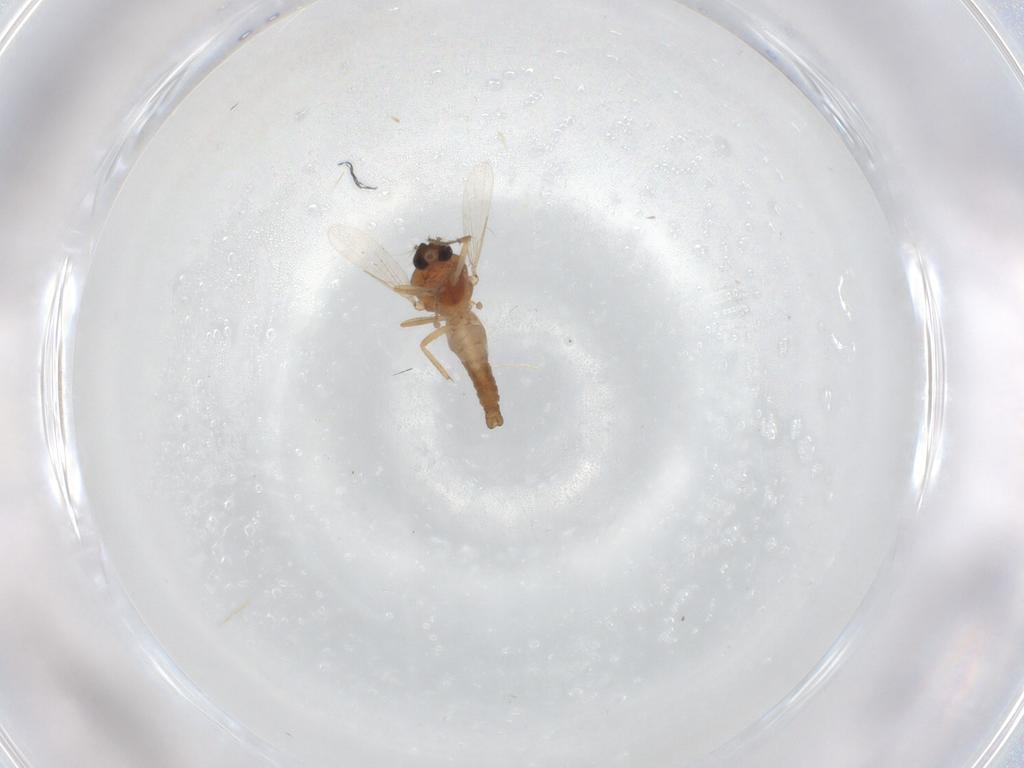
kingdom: Animalia
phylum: Arthropoda
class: Insecta
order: Diptera
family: Ceratopogonidae
